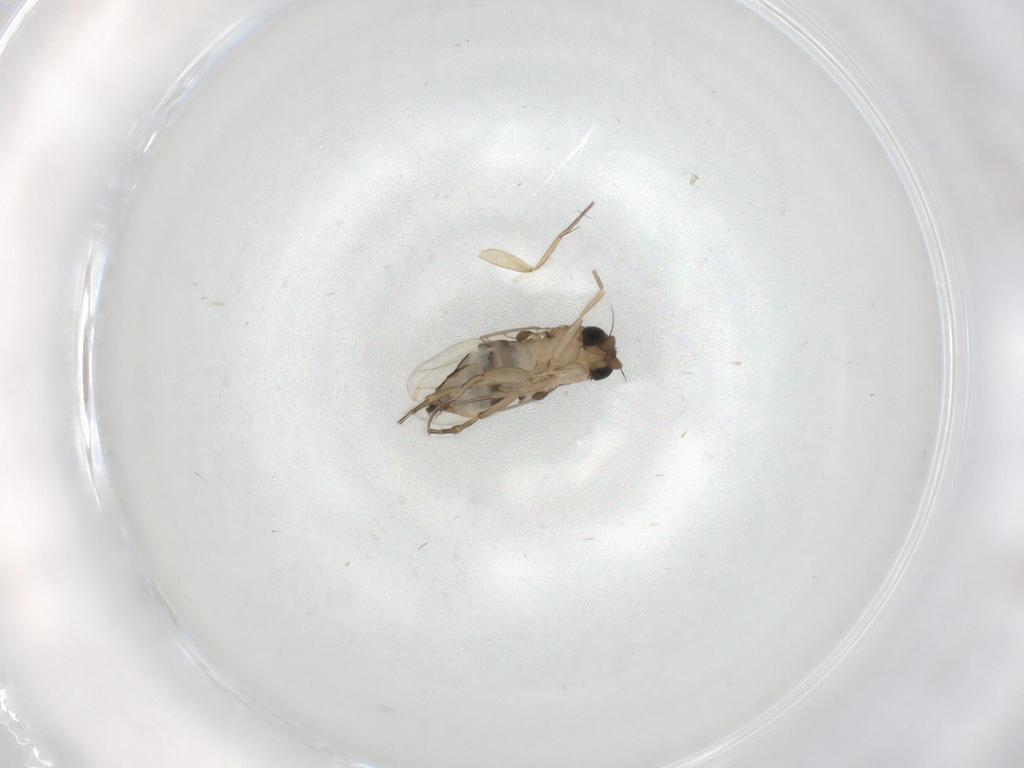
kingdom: Animalia
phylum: Arthropoda
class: Insecta
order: Diptera
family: Phoridae
